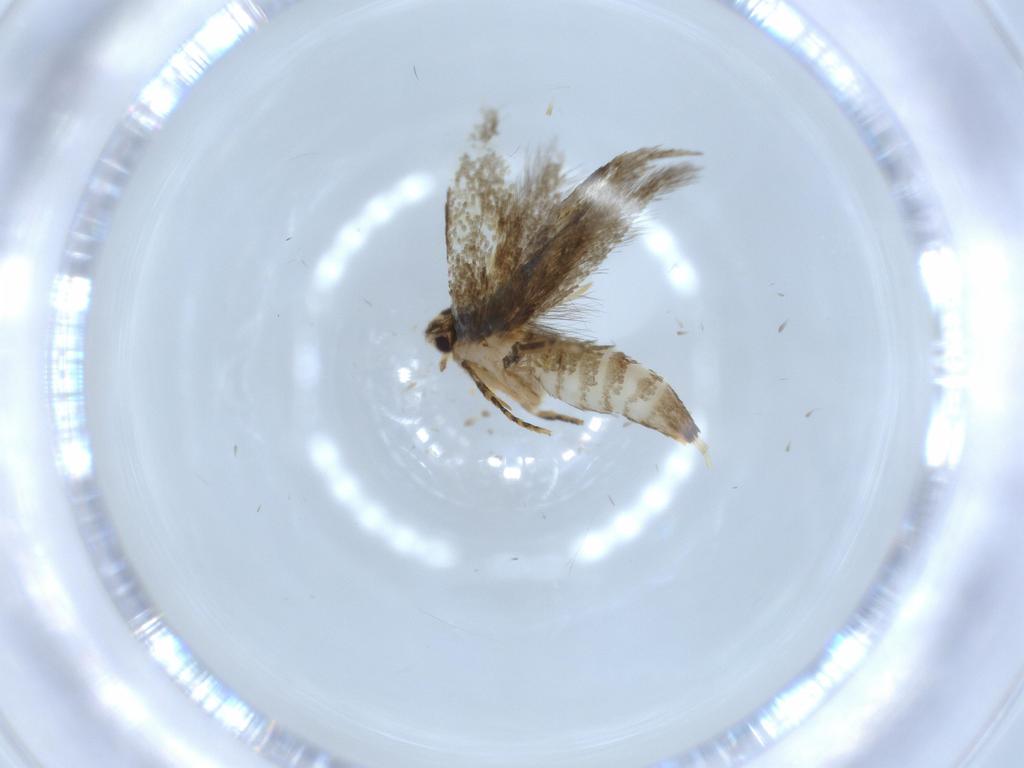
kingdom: Animalia
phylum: Arthropoda
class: Insecta
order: Lepidoptera
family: Tineidae
